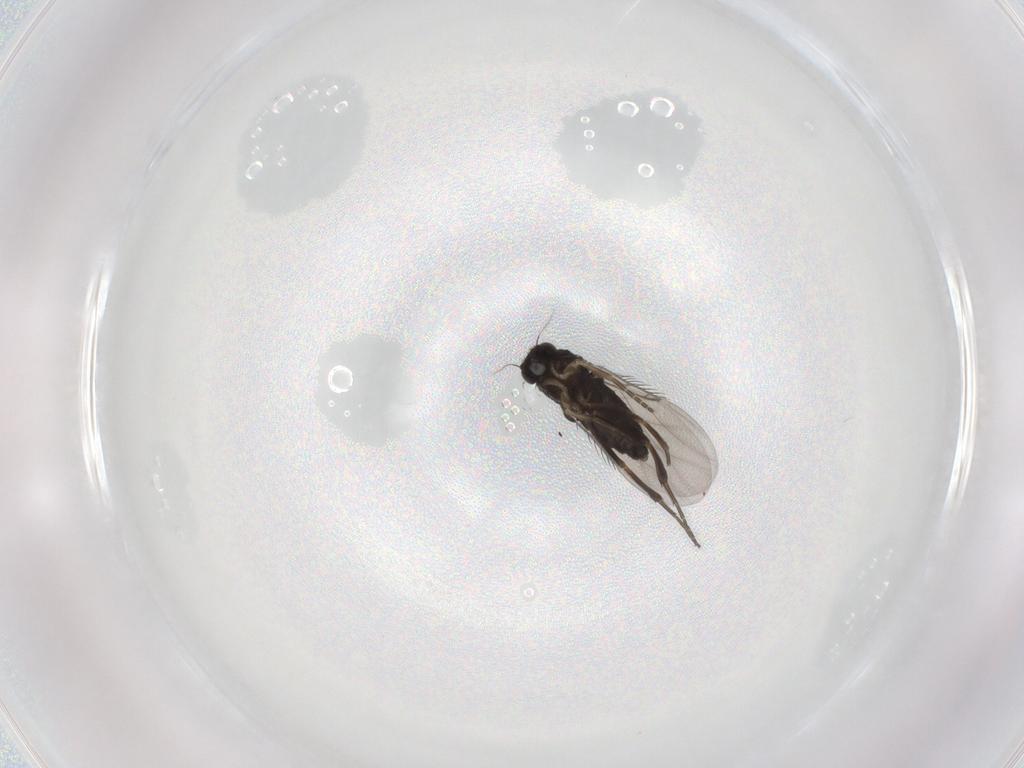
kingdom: Animalia
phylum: Arthropoda
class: Insecta
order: Diptera
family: Phoridae
